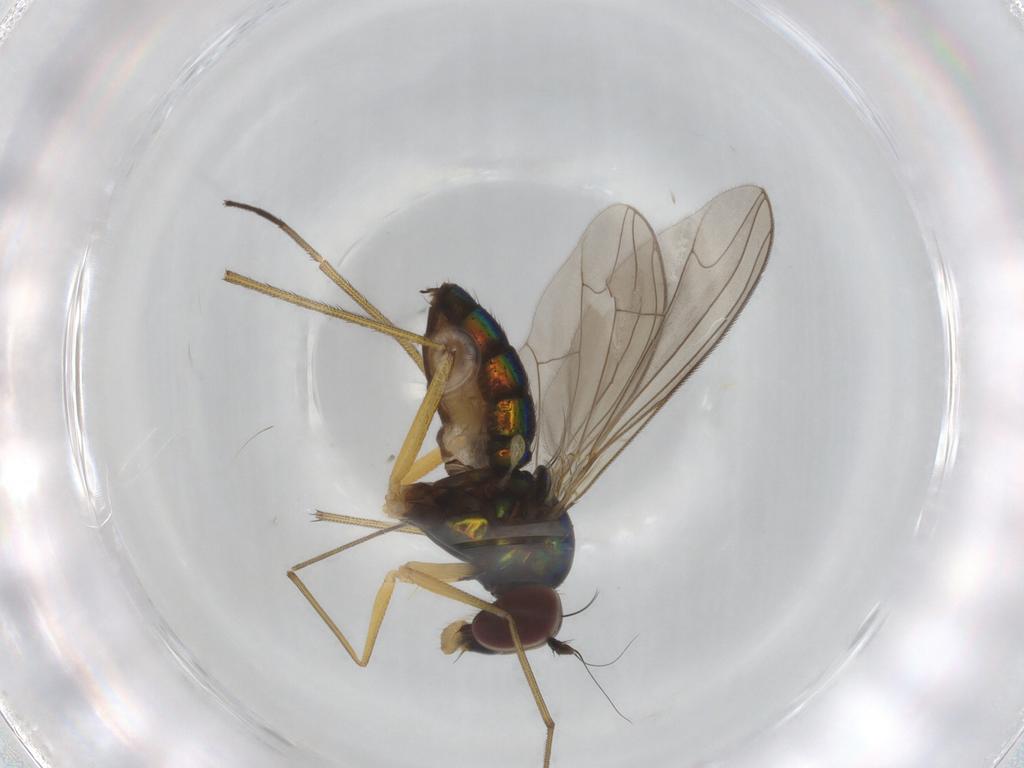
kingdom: Animalia
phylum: Arthropoda
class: Insecta
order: Diptera
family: Dolichopodidae
